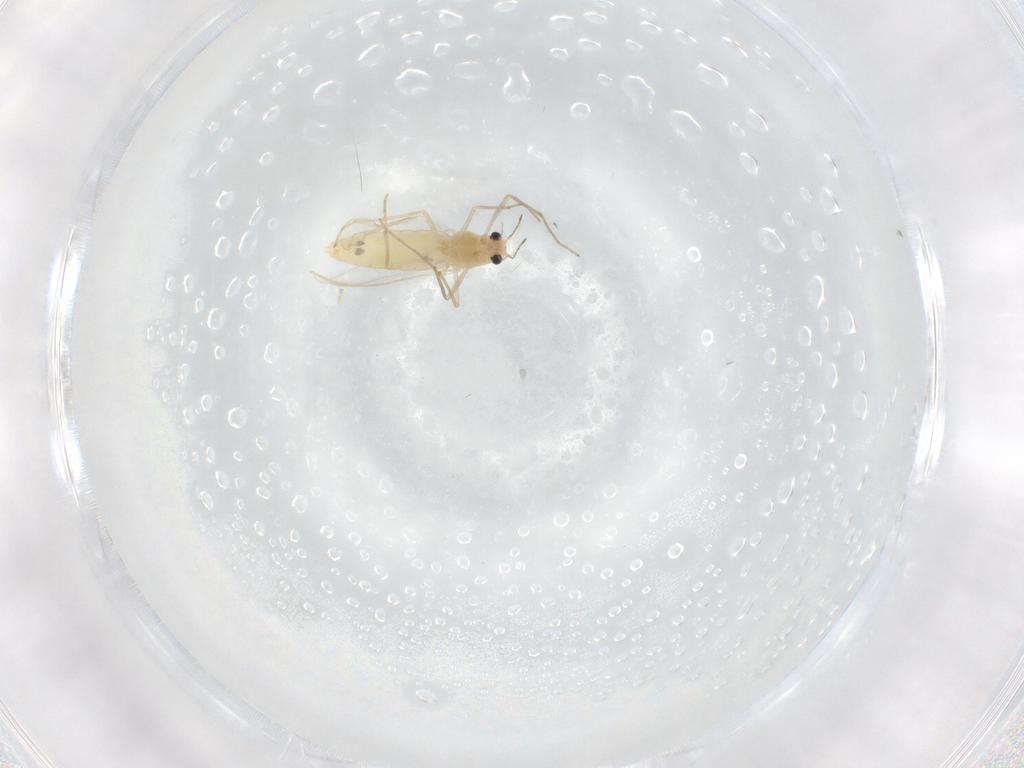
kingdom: Animalia
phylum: Arthropoda
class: Insecta
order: Diptera
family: Chironomidae
